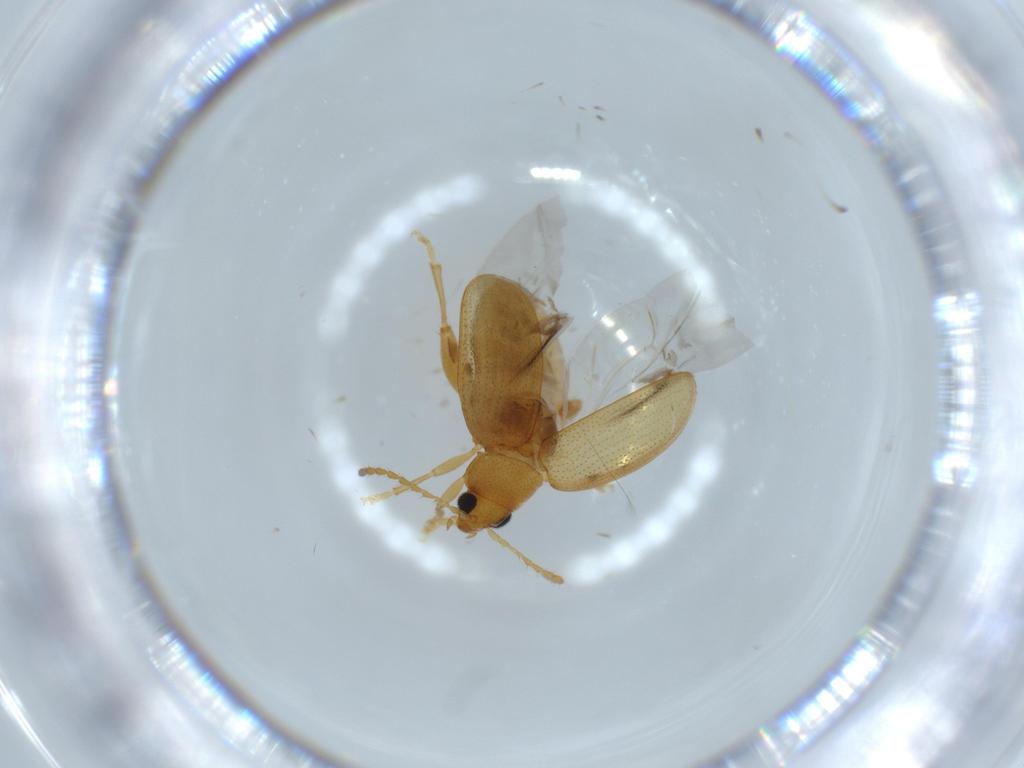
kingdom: Animalia
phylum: Arthropoda
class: Insecta
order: Coleoptera
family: Chrysomelidae
